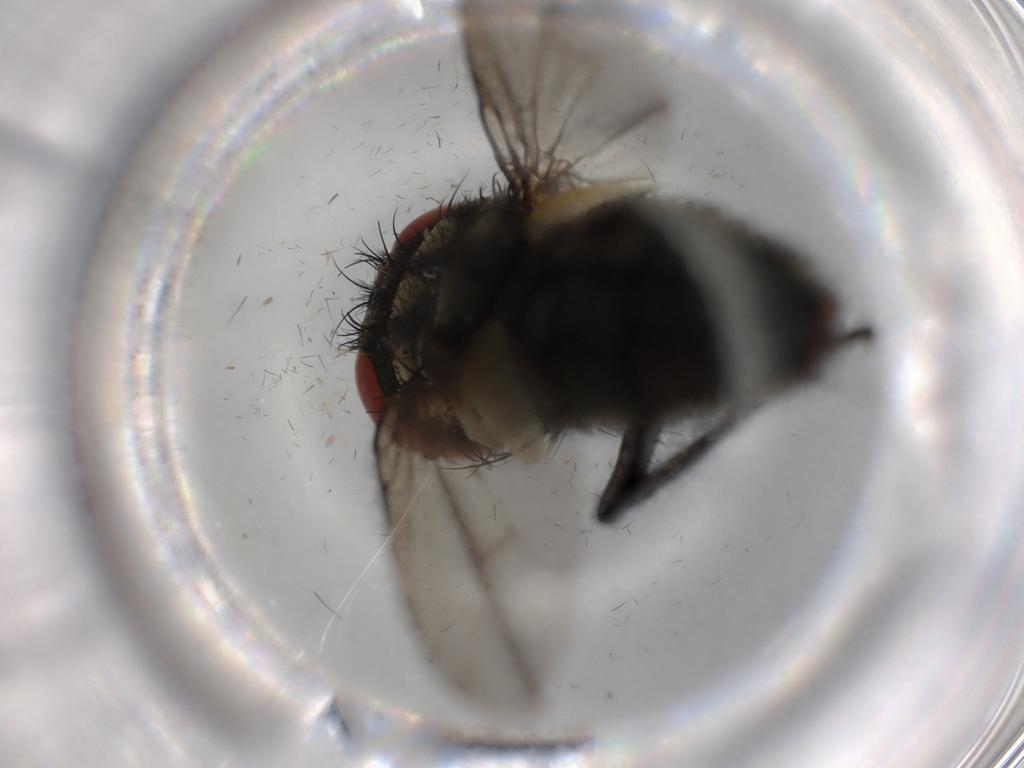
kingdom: Animalia
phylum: Arthropoda
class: Insecta
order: Diptera
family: Sarcophagidae
